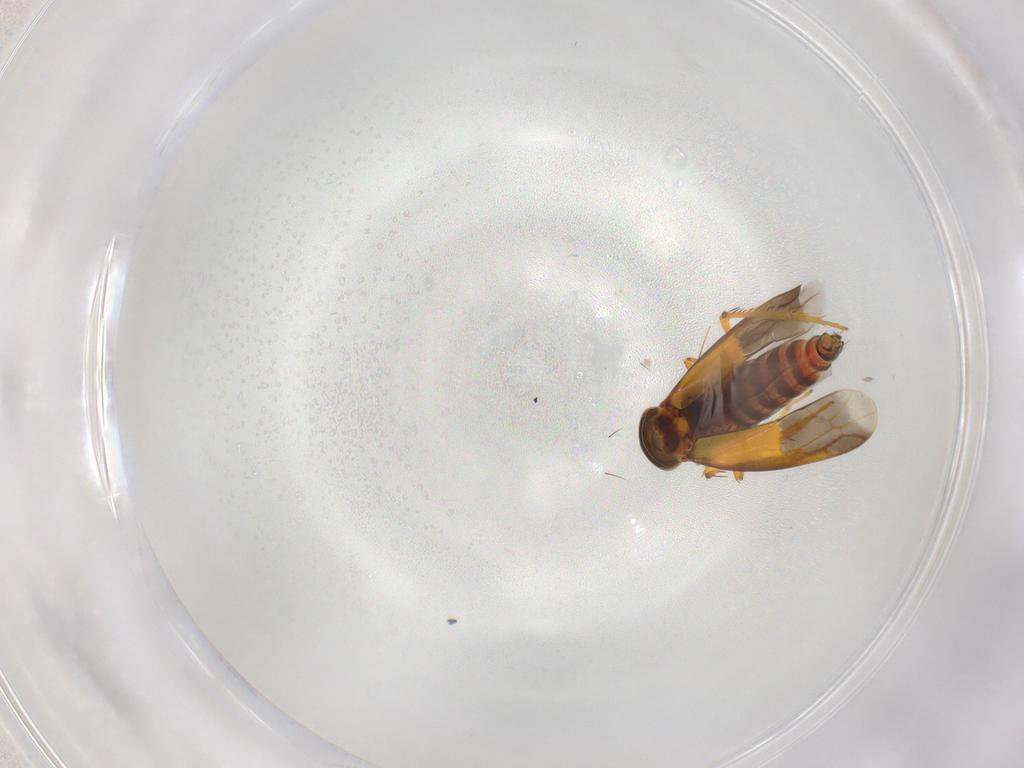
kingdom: Animalia
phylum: Arthropoda
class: Insecta
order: Hemiptera
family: Cicadellidae
